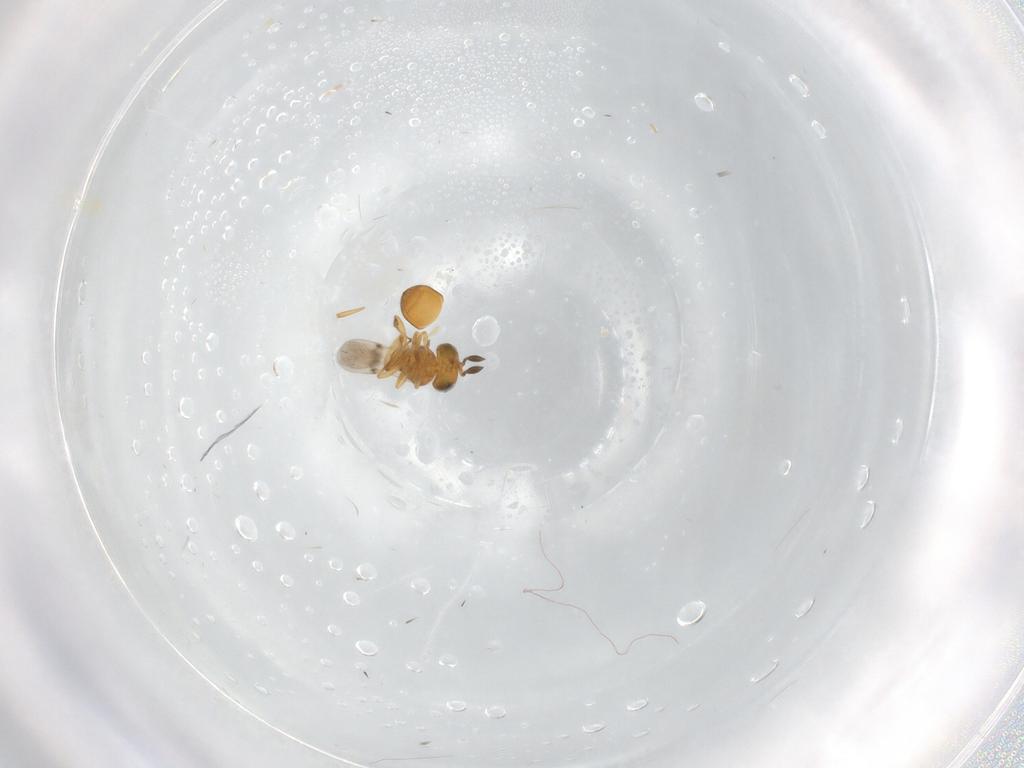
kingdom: Animalia
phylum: Arthropoda
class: Insecta
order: Hymenoptera
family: Scelionidae
